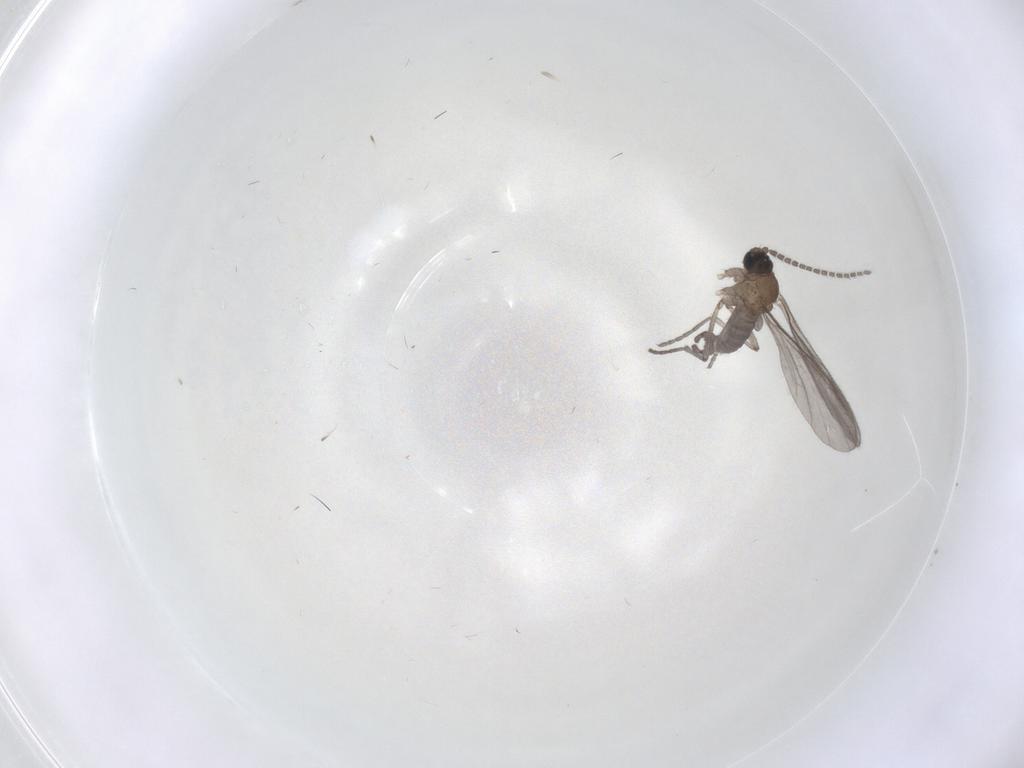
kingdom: Animalia
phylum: Arthropoda
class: Insecta
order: Diptera
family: Sciaridae
